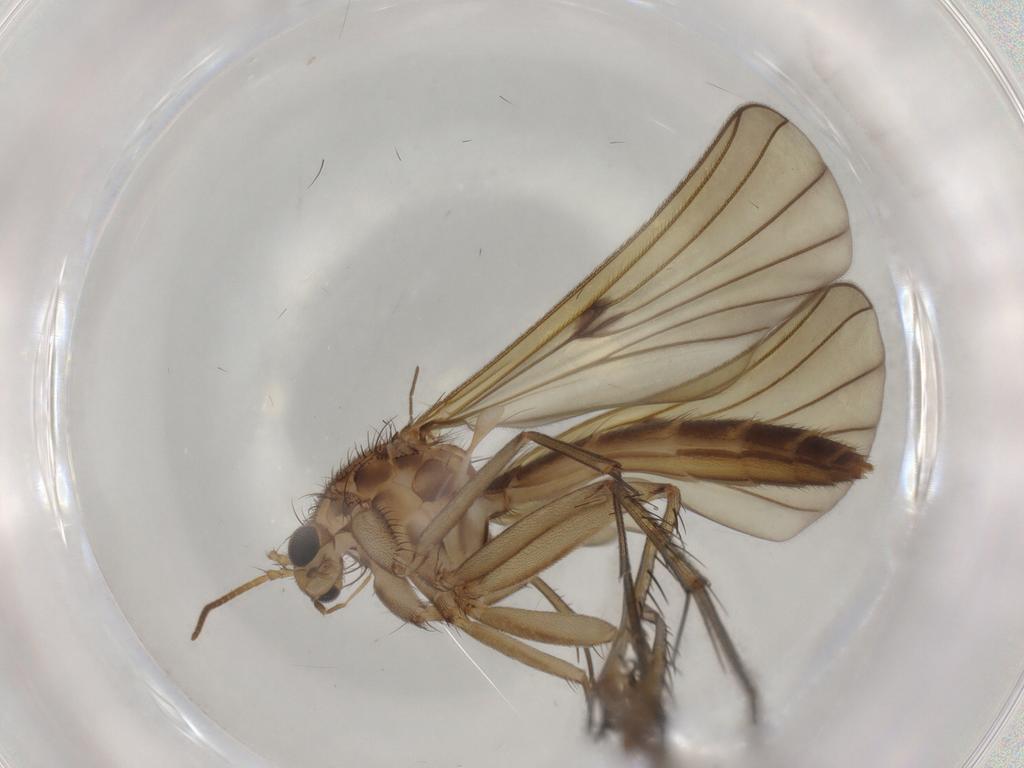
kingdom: Animalia
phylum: Arthropoda
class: Insecta
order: Diptera
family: Mycetophilidae
